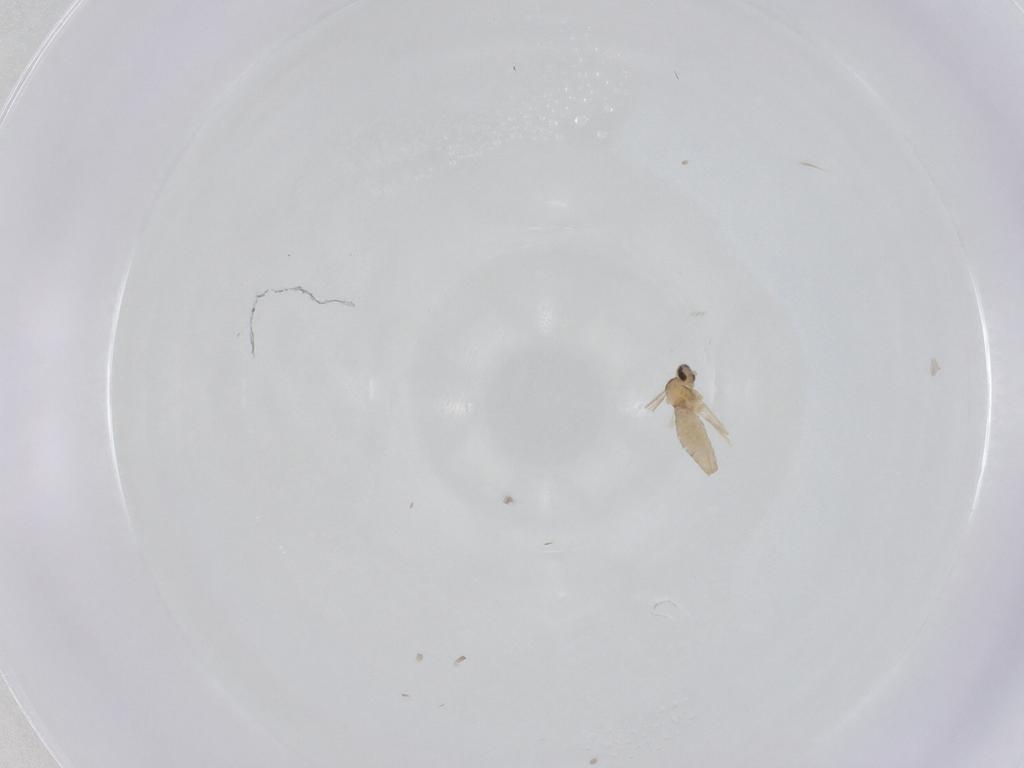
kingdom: Animalia
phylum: Arthropoda
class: Insecta
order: Diptera
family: Cecidomyiidae
